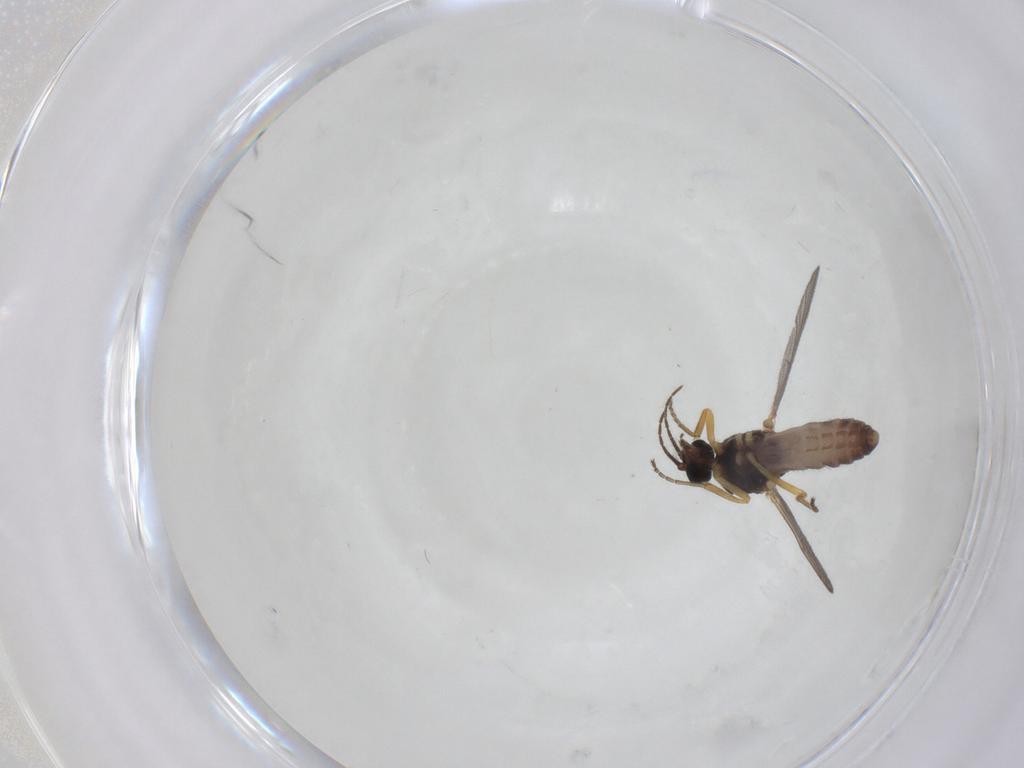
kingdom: Animalia
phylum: Arthropoda
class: Insecta
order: Diptera
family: Ceratopogonidae
